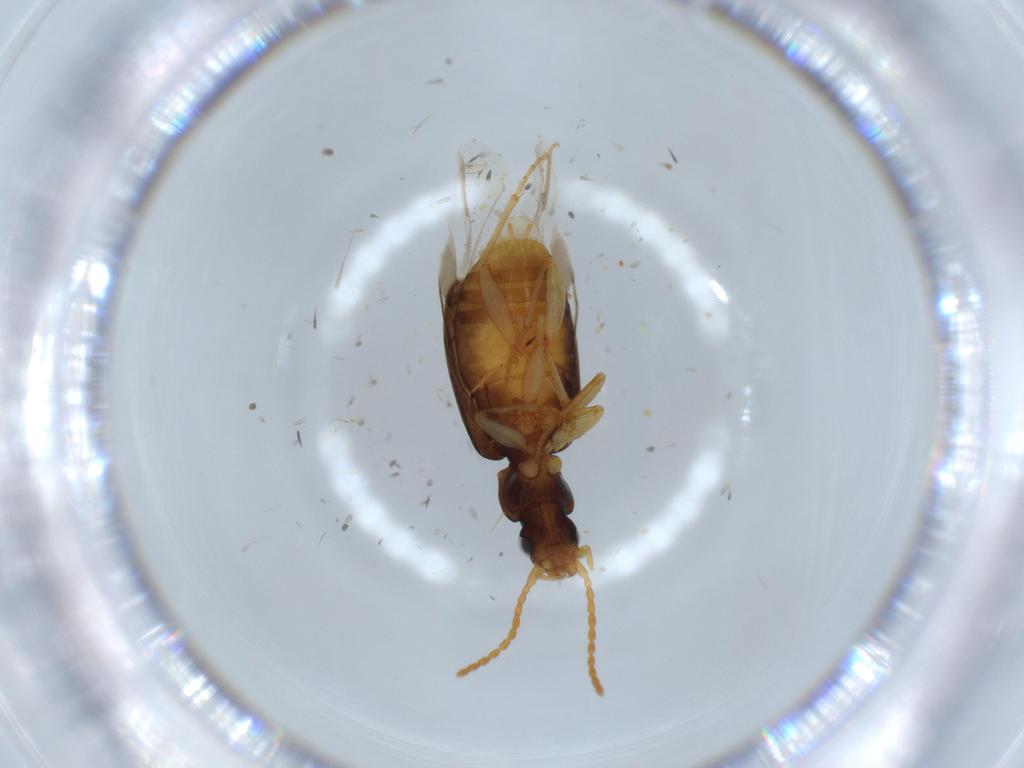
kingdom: Animalia
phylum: Arthropoda
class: Insecta
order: Coleoptera
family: Carabidae
